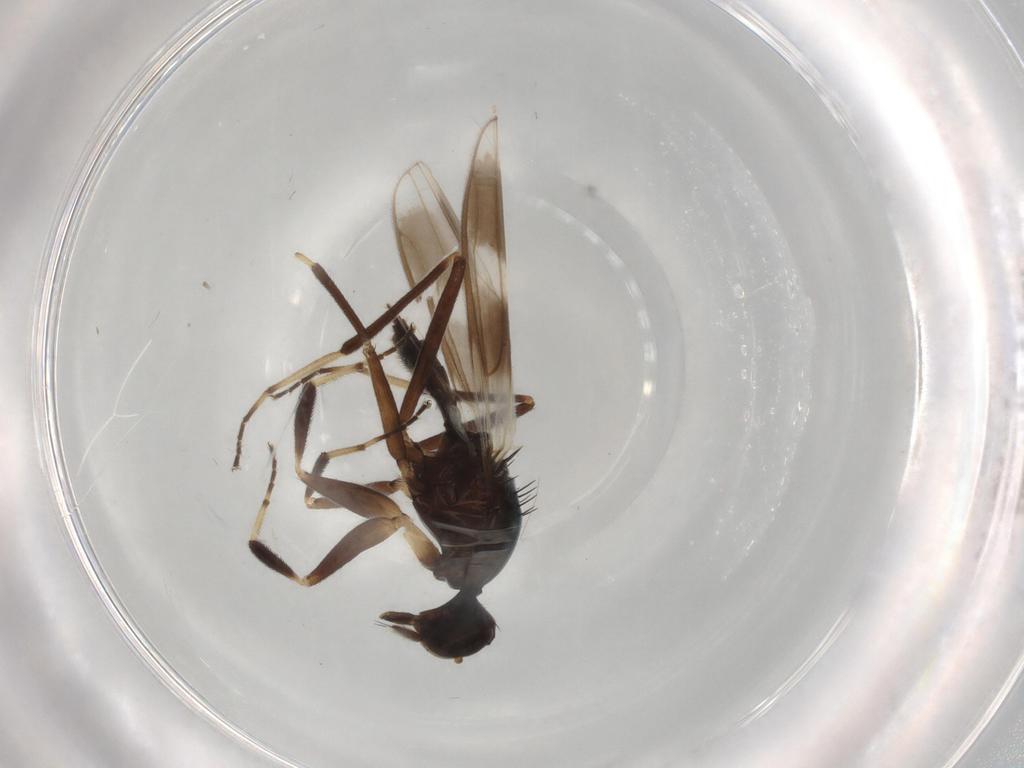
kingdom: Animalia
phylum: Arthropoda
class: Insecta
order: Diptera
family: Hybotidae
